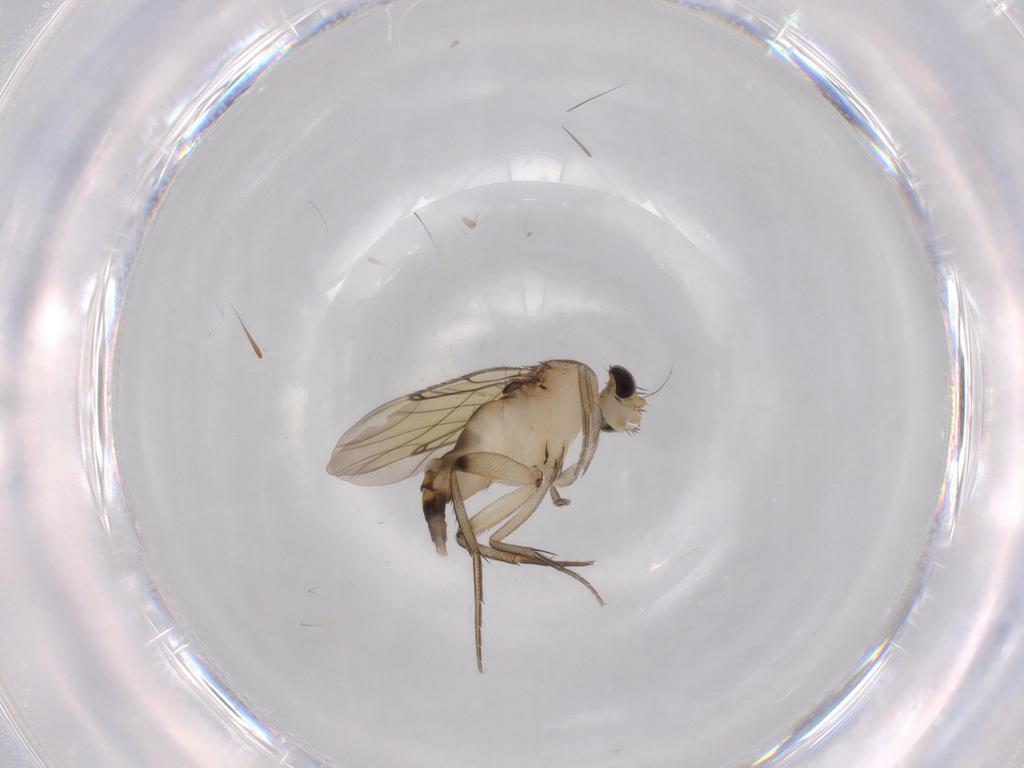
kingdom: Animalia
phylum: Arthropoda
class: Insecta
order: Diptera
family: Phoridae
